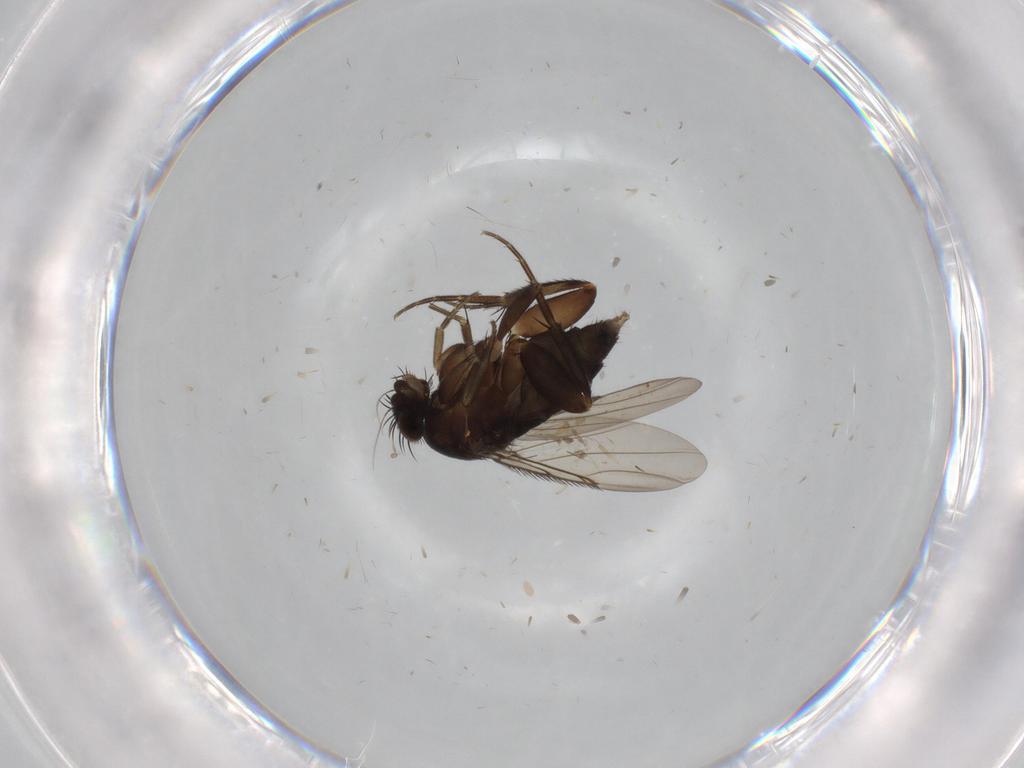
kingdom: Animalia
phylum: Arthropoda
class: Insecta
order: Diptera
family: Phoridae
